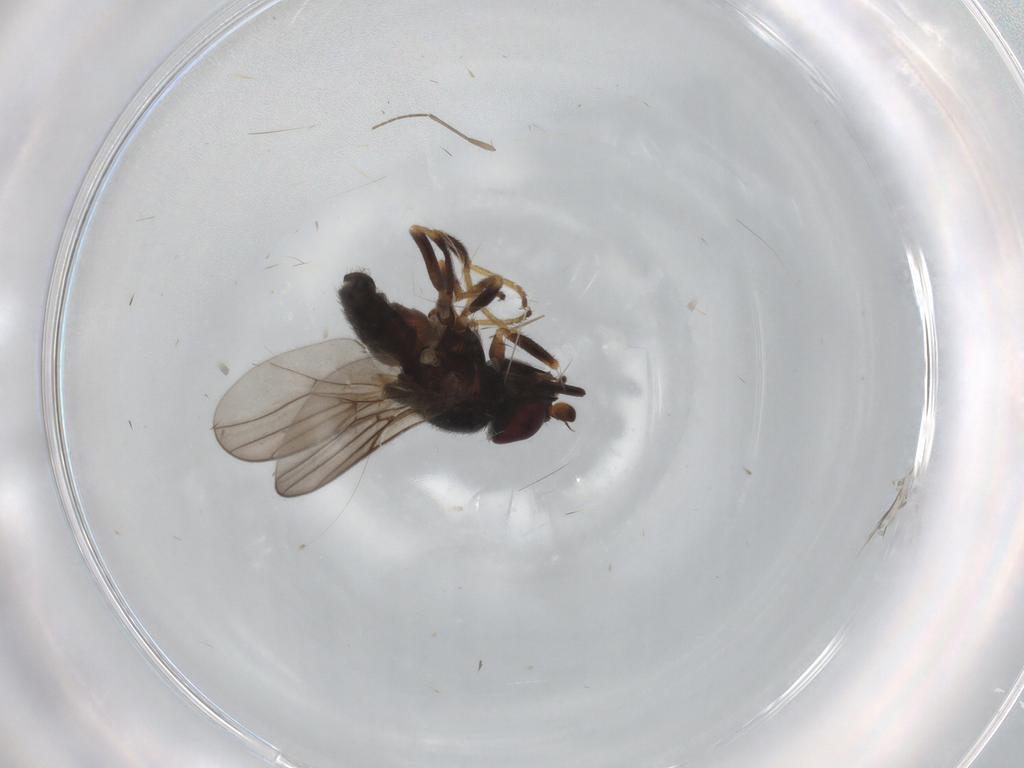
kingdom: Animalia
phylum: Arthropoda
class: Insecta
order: Diptera
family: Chloropidae
